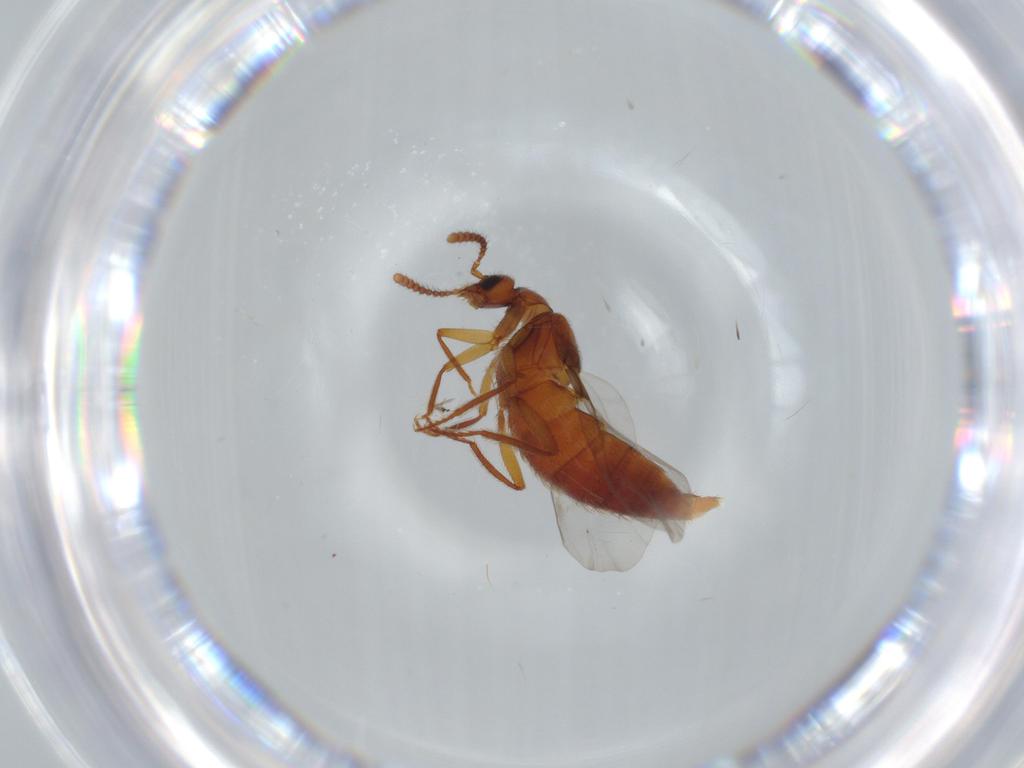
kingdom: Animalia
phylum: Arthropoda
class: Insecta
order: Coleoptera
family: Staphylinidae
